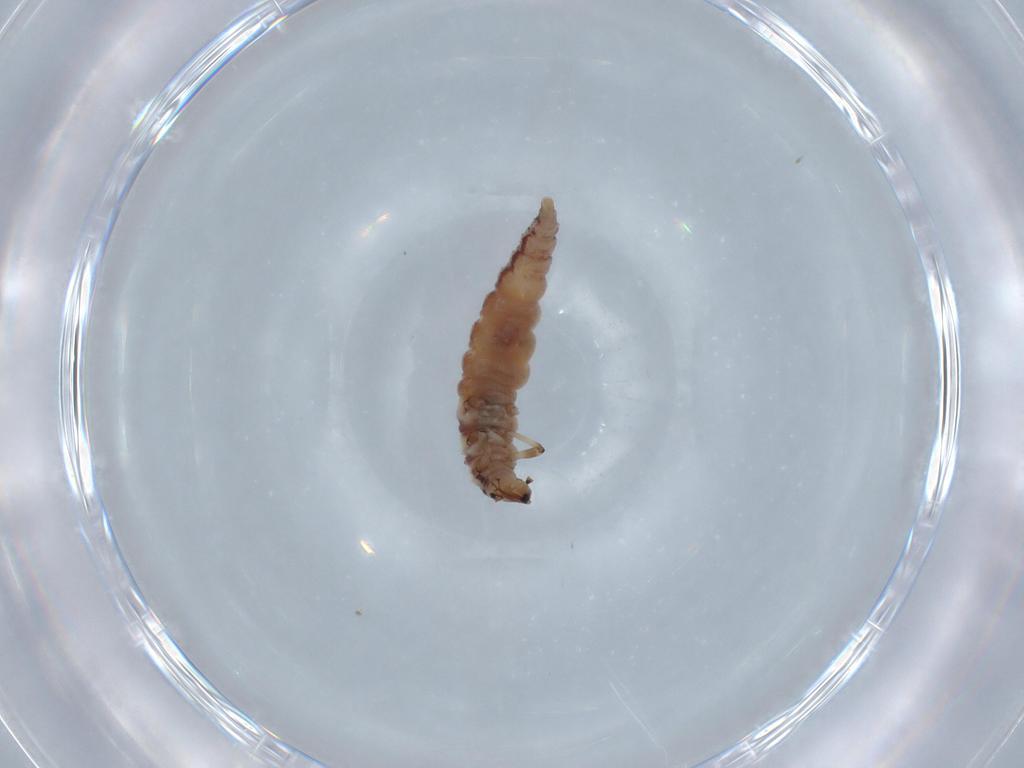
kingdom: Animalia
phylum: Arthropoda
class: Insecta
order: Neuroptera
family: Hemerobiidae
